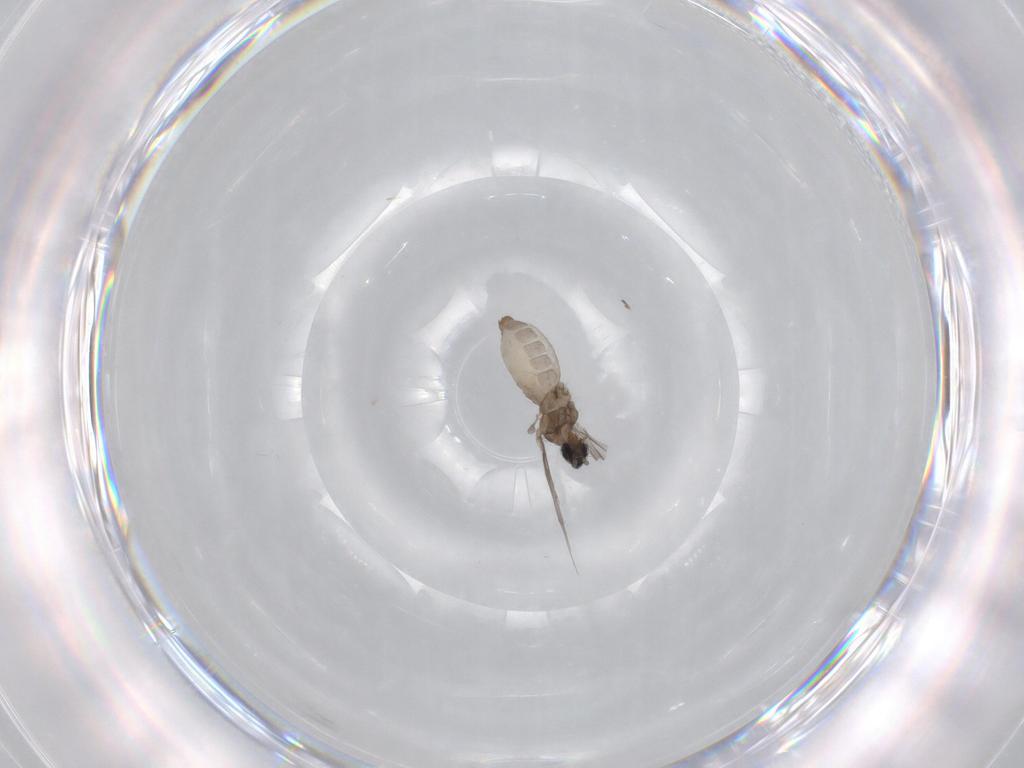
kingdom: Animalia
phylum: Arthropoda
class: Insecta
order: Diptera
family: Cecidomyiidae
